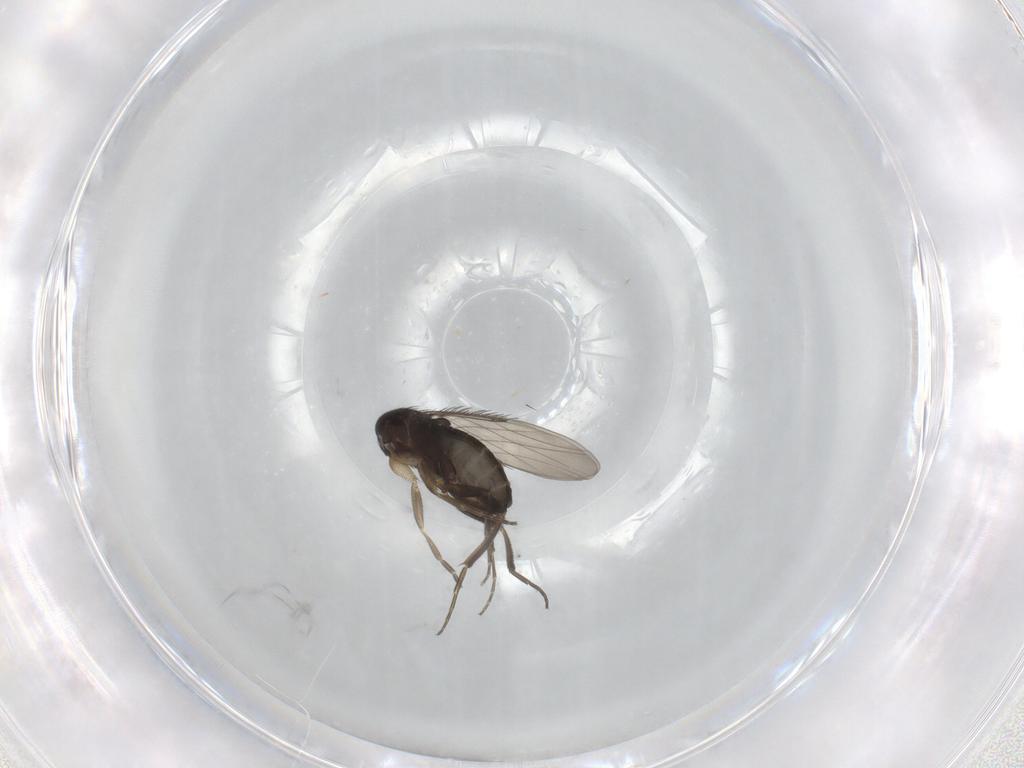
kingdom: Animalia
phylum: Arthropoda
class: Insecta
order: Diptera
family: Phoridae
